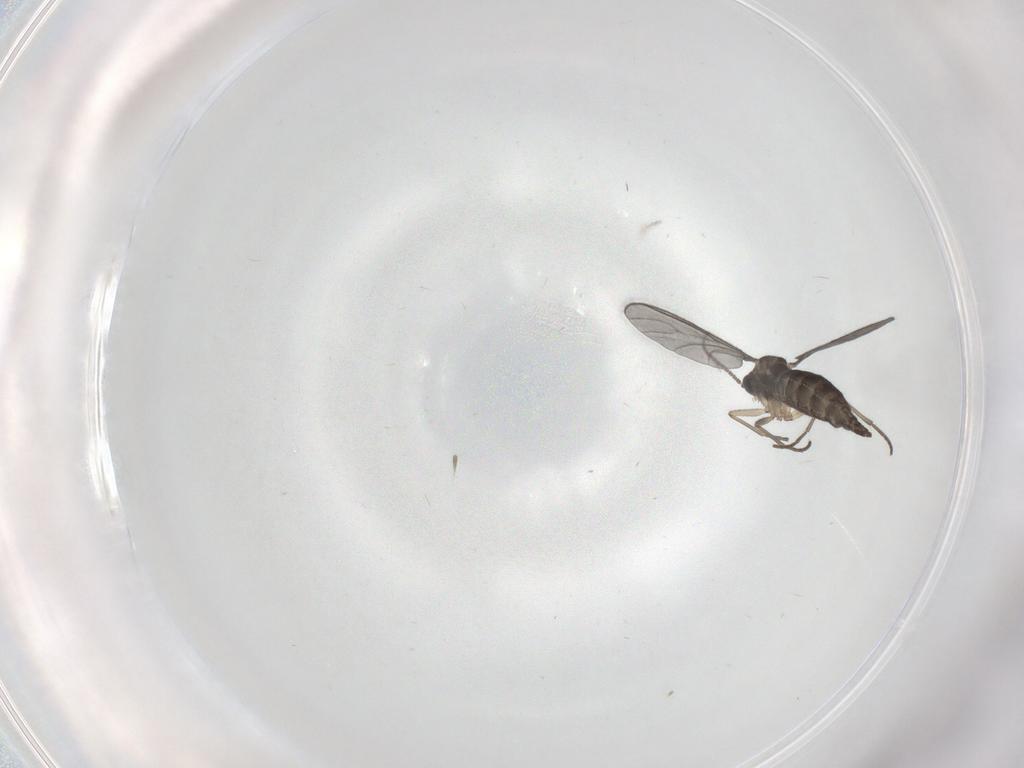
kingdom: Animalia
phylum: Arthropoda
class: Insecta
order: Diptera
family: Sciaridae
